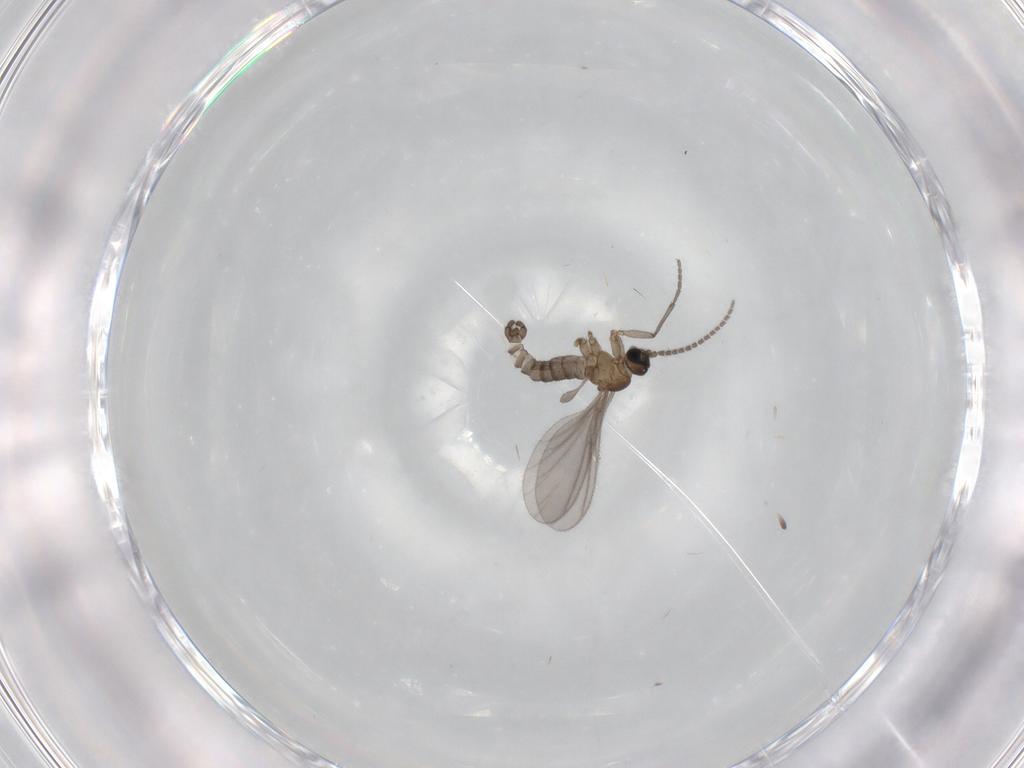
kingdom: Animalia
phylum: Arthropoda
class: Insecta
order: Diptera
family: Sciaridae
